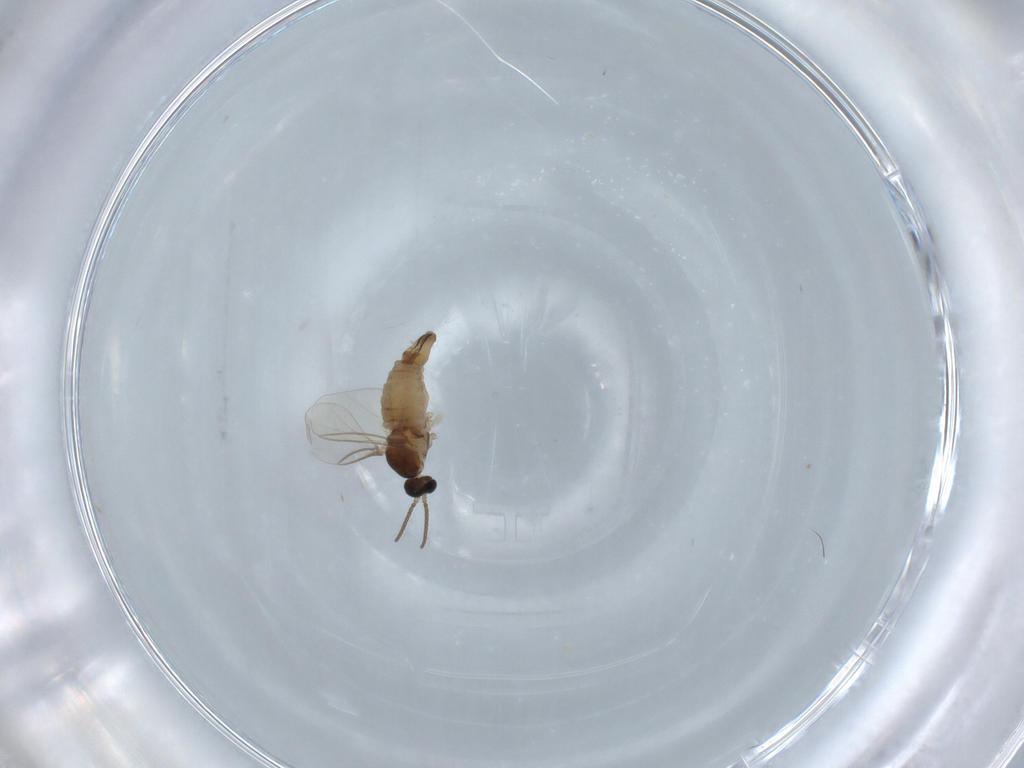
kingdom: Animalia
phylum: Arthropoda
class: Insecta
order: Diptera
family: Cecidomyiidae
